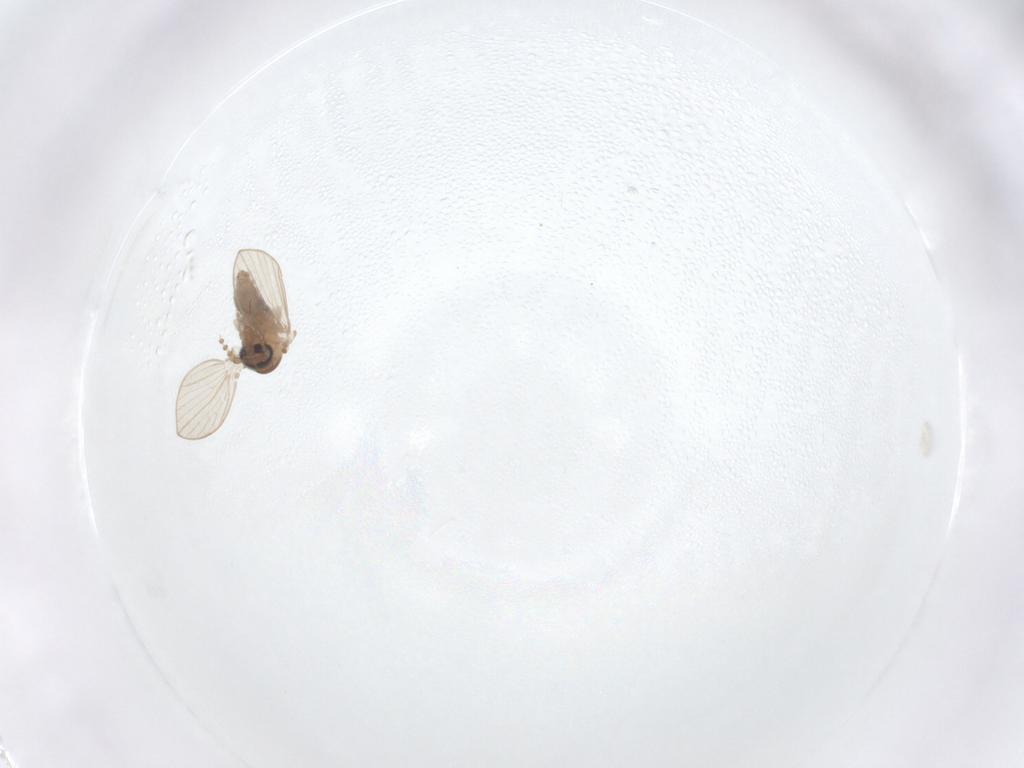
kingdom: Animalia
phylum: Arthropoda
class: Insecta
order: Diptera
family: Psychodidae
